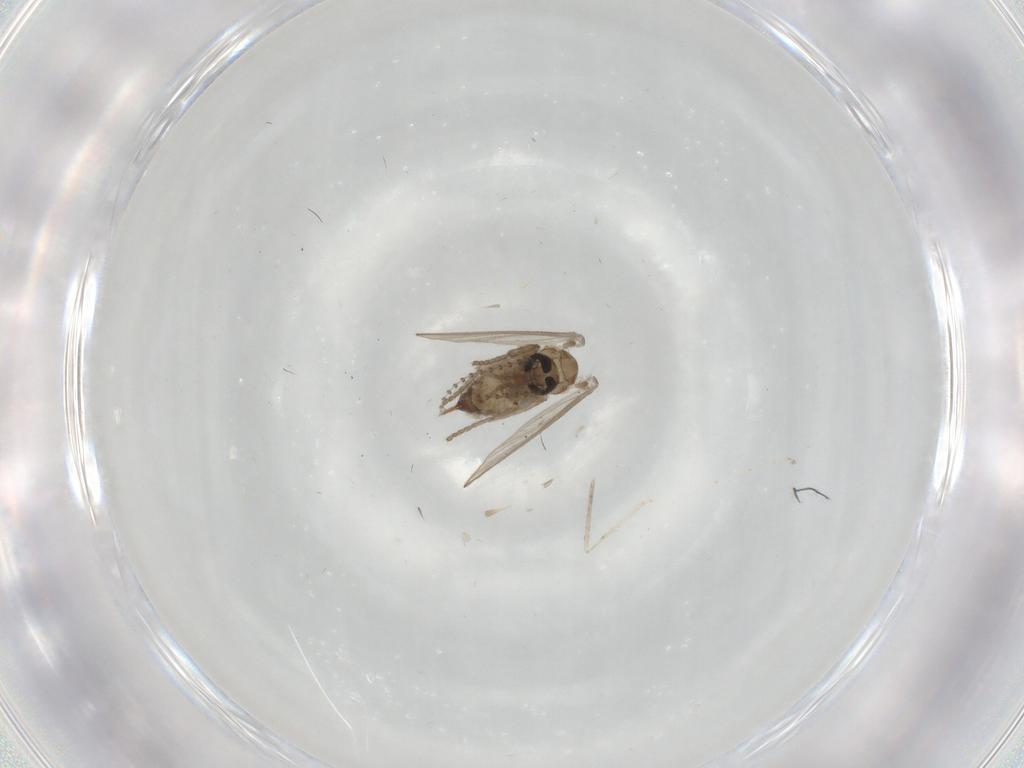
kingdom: Animalia
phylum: Arthropoda
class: Insecta
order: Diptera
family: Psychodidae
